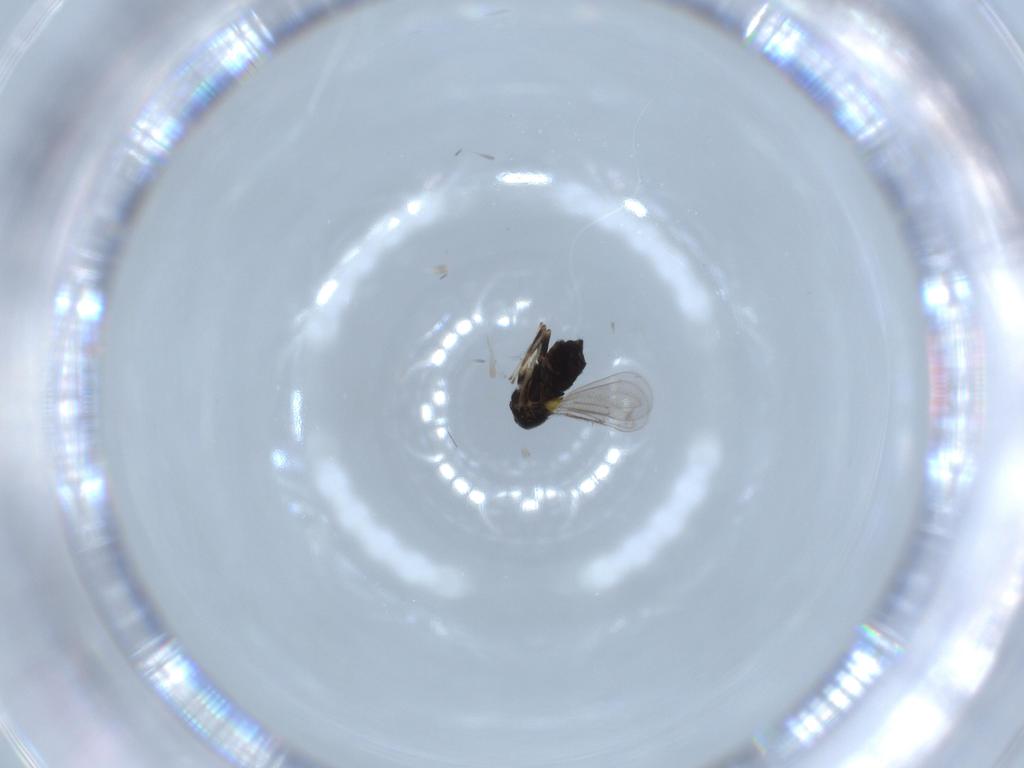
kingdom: Animalia
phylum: Arthropoda
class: Insecta
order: Hymenoptera
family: Aphelinidae
